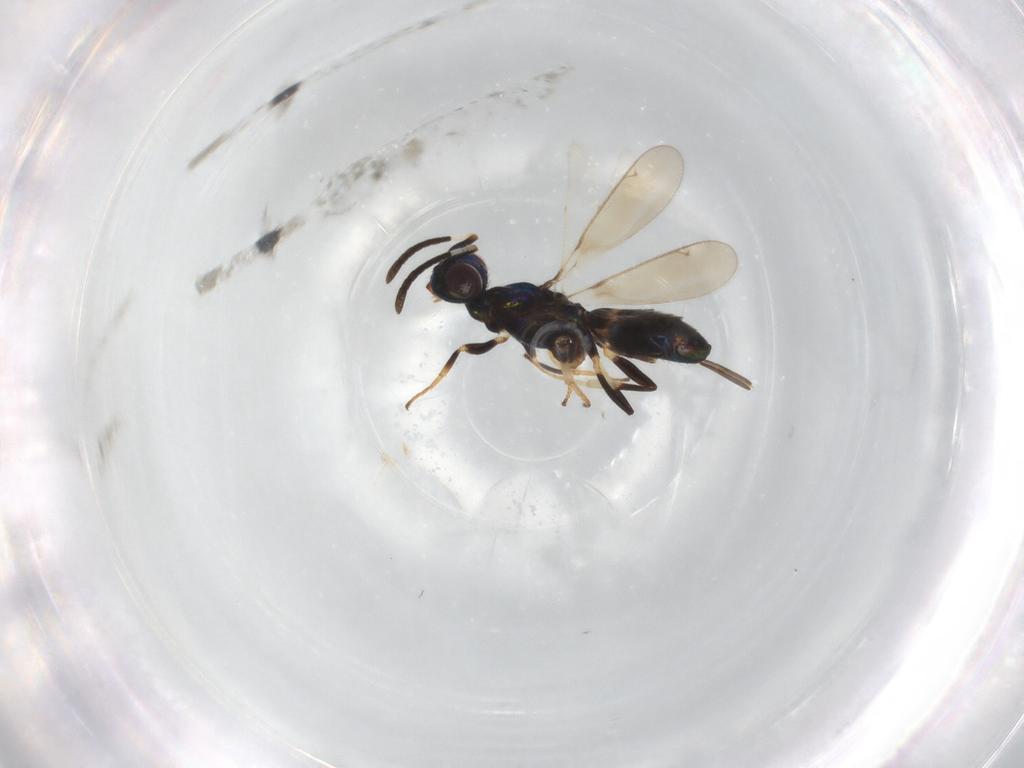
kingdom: Animalia
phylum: Arthropoda
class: Insecta
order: Hymenoptera
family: Eupelmidae
